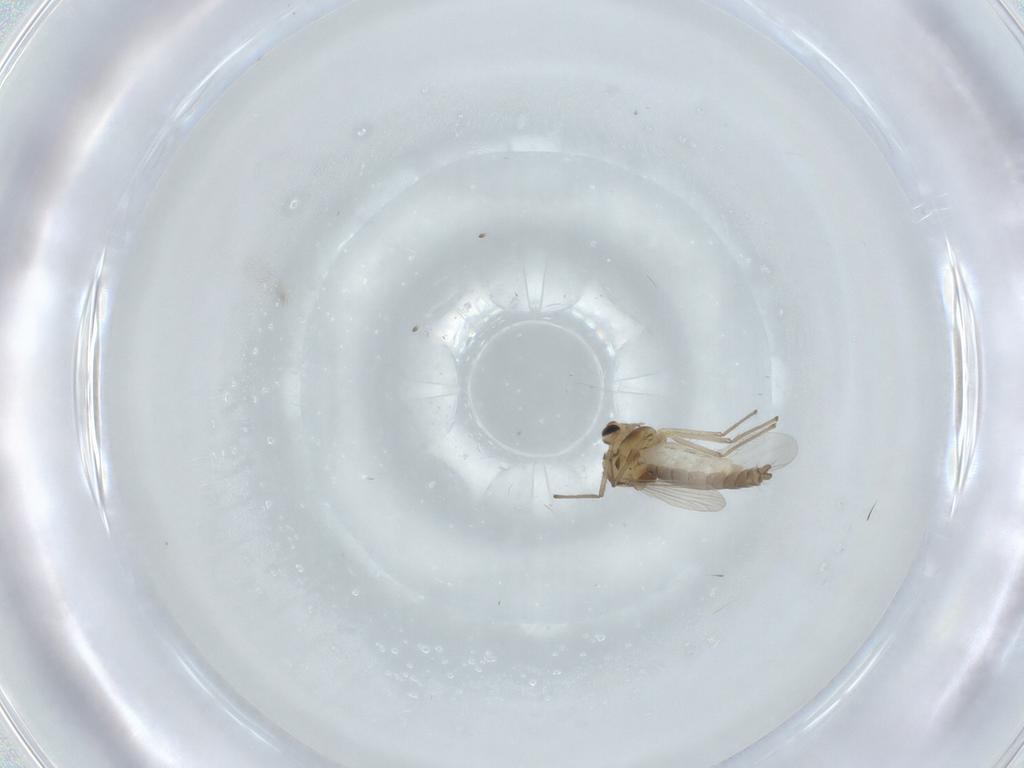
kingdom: Animalia
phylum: Arthropoda
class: Insecta
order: Diptera
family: Chironomidae
